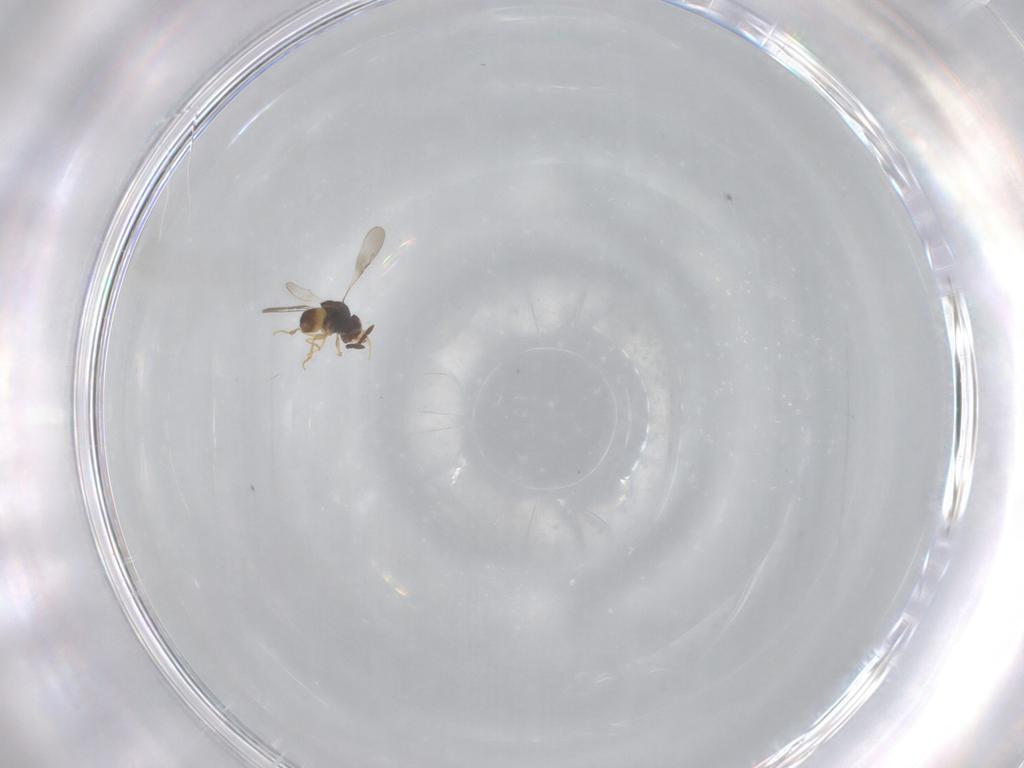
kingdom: Animalia
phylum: Arthropoda
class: Insecta
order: Hymenoptera
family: Ceraphronidae
